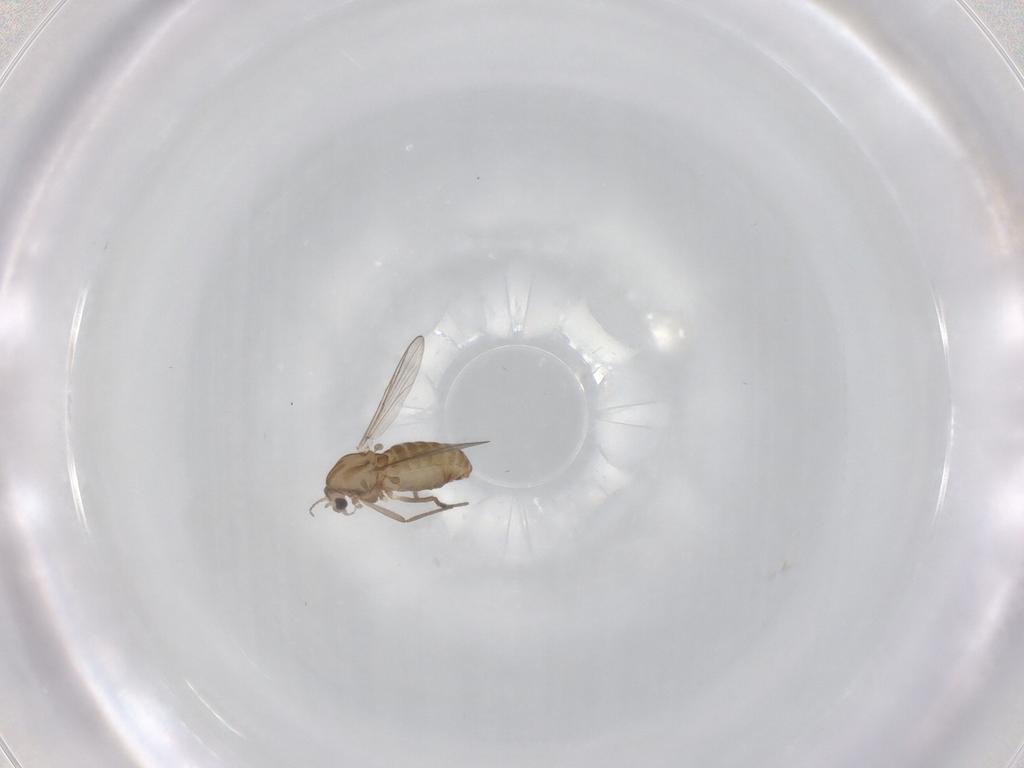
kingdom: Animalia
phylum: Arthropoda
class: Insecta
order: Diptera
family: Chironomidae
